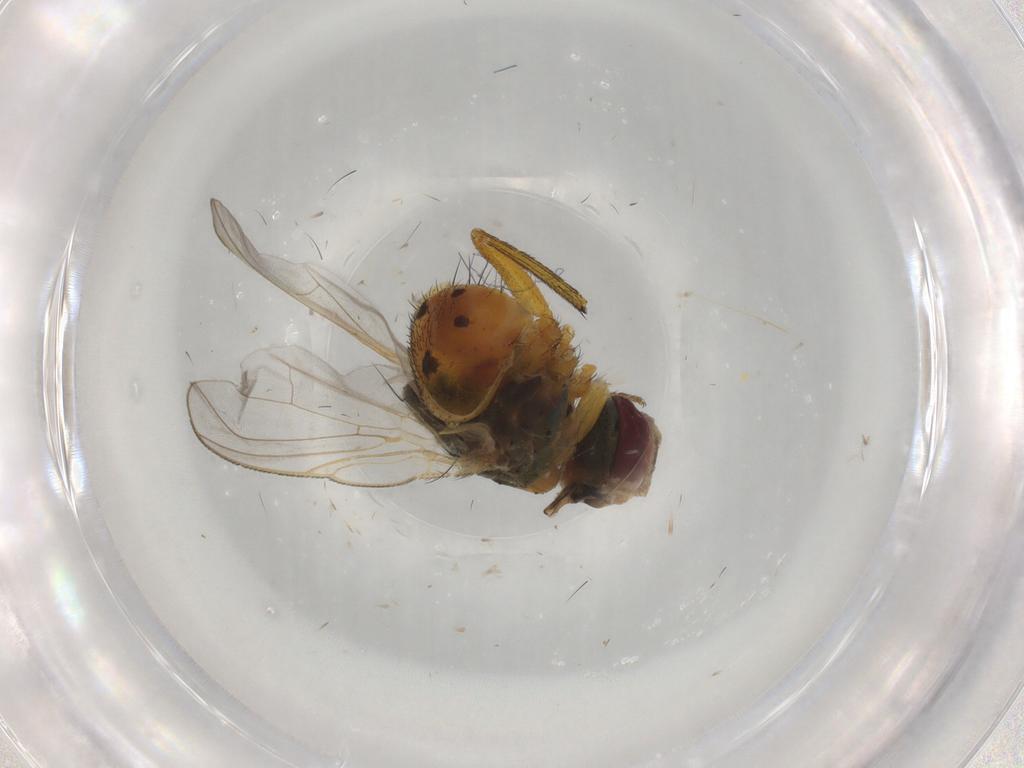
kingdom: Animalia
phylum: Arthropoda
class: Insecta
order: Diptera
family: Muscidae
